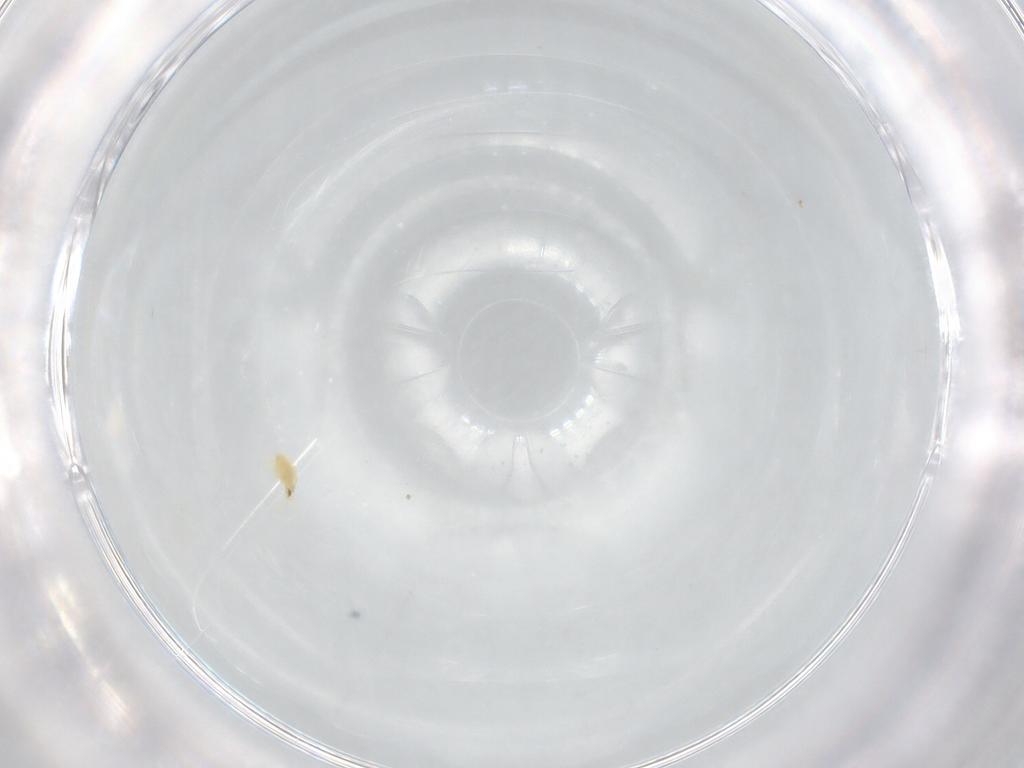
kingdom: Animalia
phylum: Arthropoda
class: Arachnida
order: Trombidiformes
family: Eupodidae
